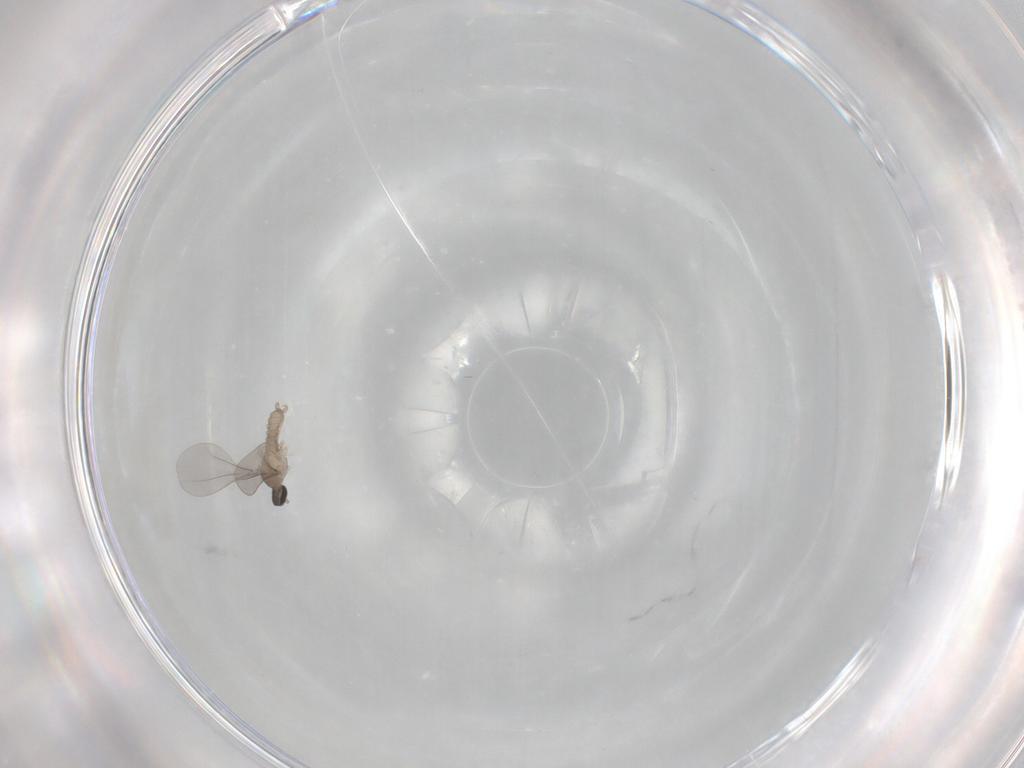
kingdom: Animalia
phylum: Arthropoda
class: Insecta
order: Diptera
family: Cecidomyiidae
